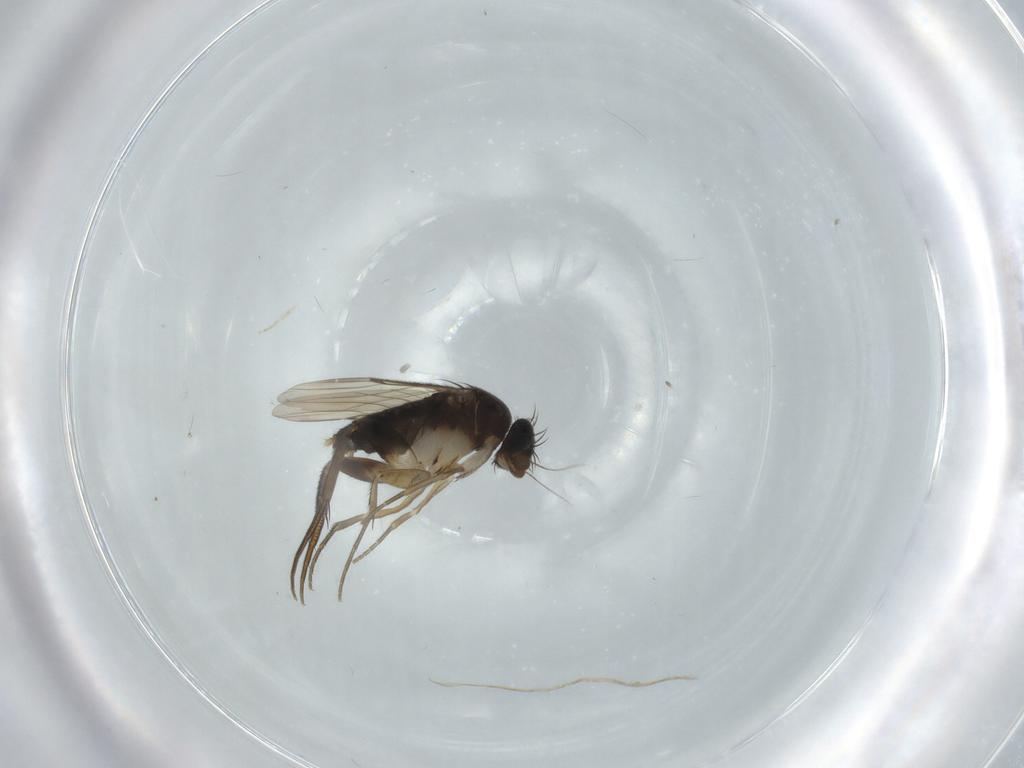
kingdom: Animalia
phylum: Arthropoda
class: Insecta
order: Diptera
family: Phoridae
